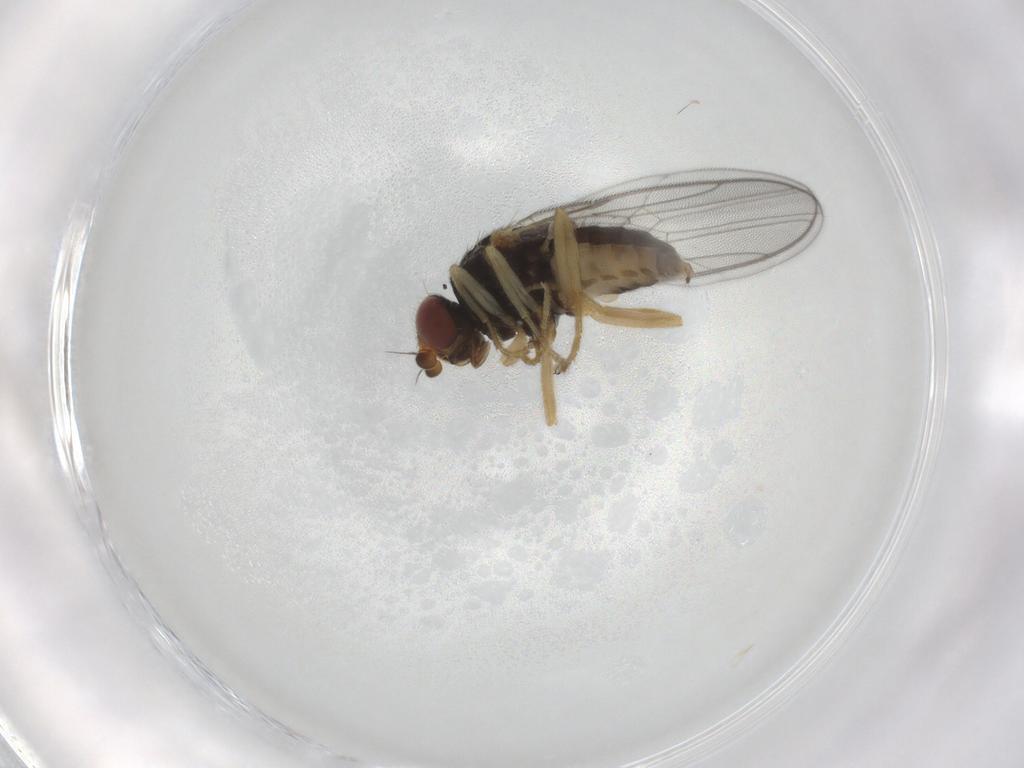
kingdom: Animalia
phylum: Arthropoda
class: Insecta
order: Diptera
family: Chloropidae
